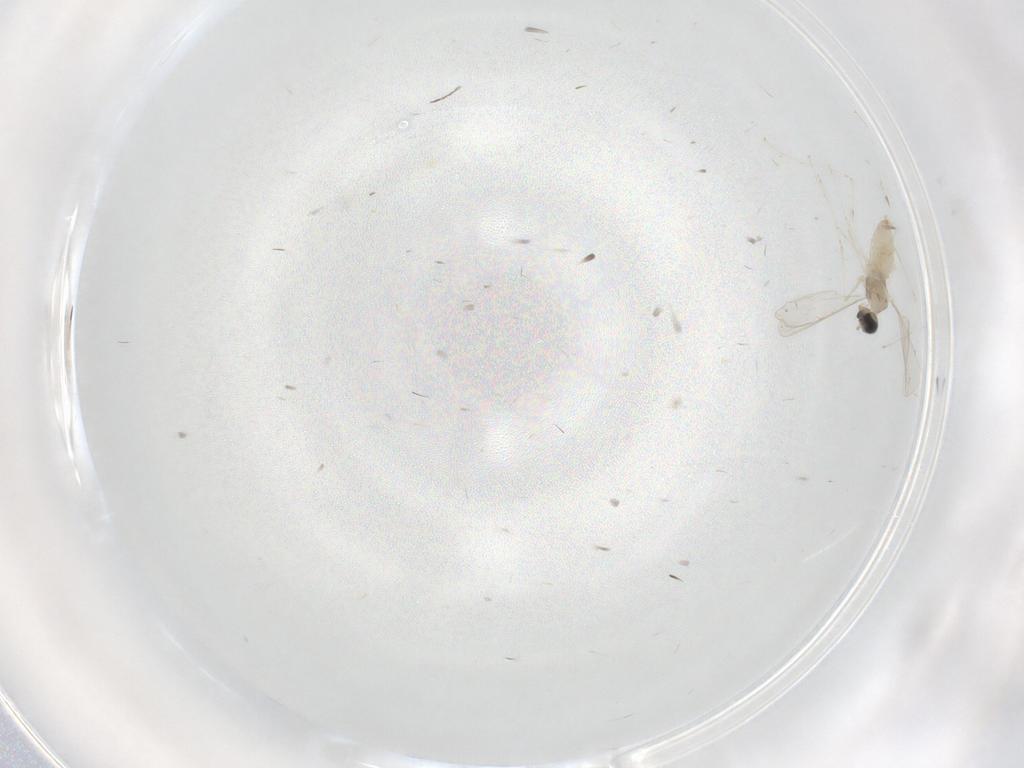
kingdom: Animalia
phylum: Arthropoda
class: Insecta
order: Diptera
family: Cecidomyiidae
